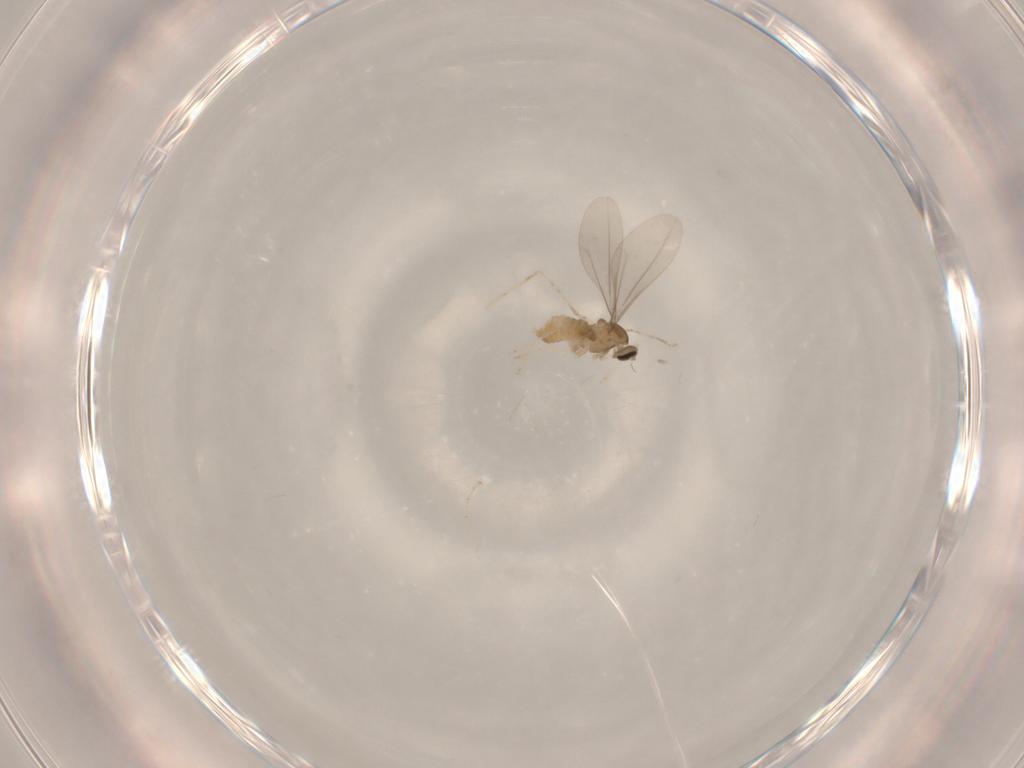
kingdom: Animalia
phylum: Arthropoda
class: Insecta
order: Diptera
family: Cecidomyiidae
